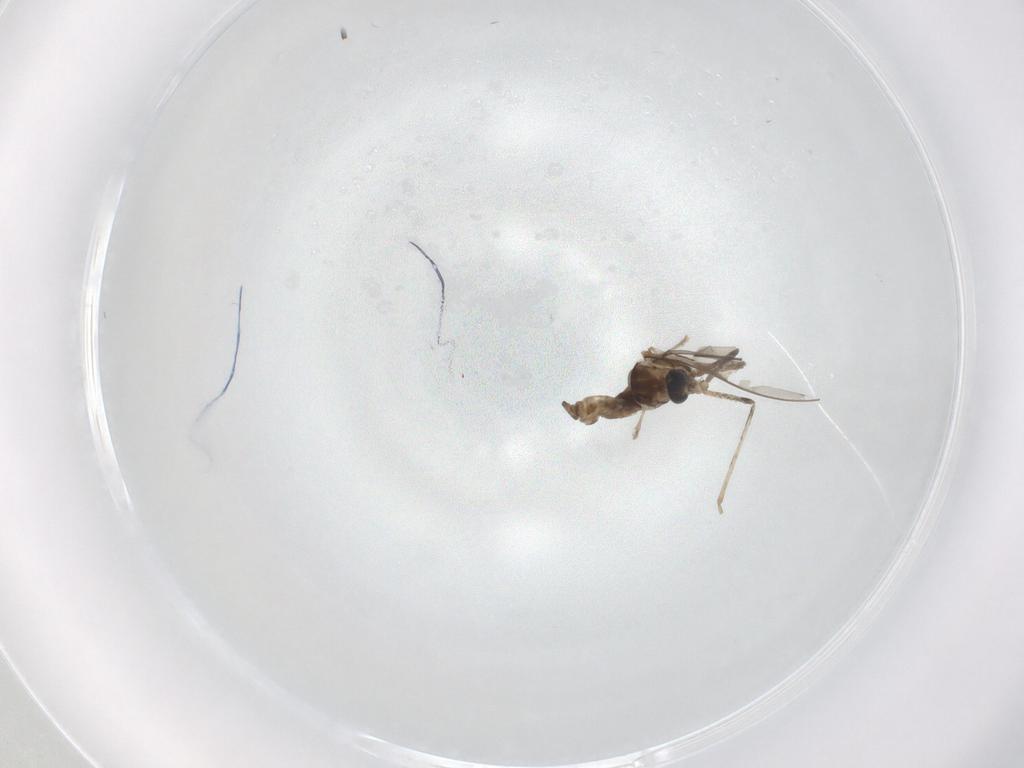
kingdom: Animalia
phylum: Arthropoda
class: Insecta
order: Diptera
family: Cecidomyiidae
